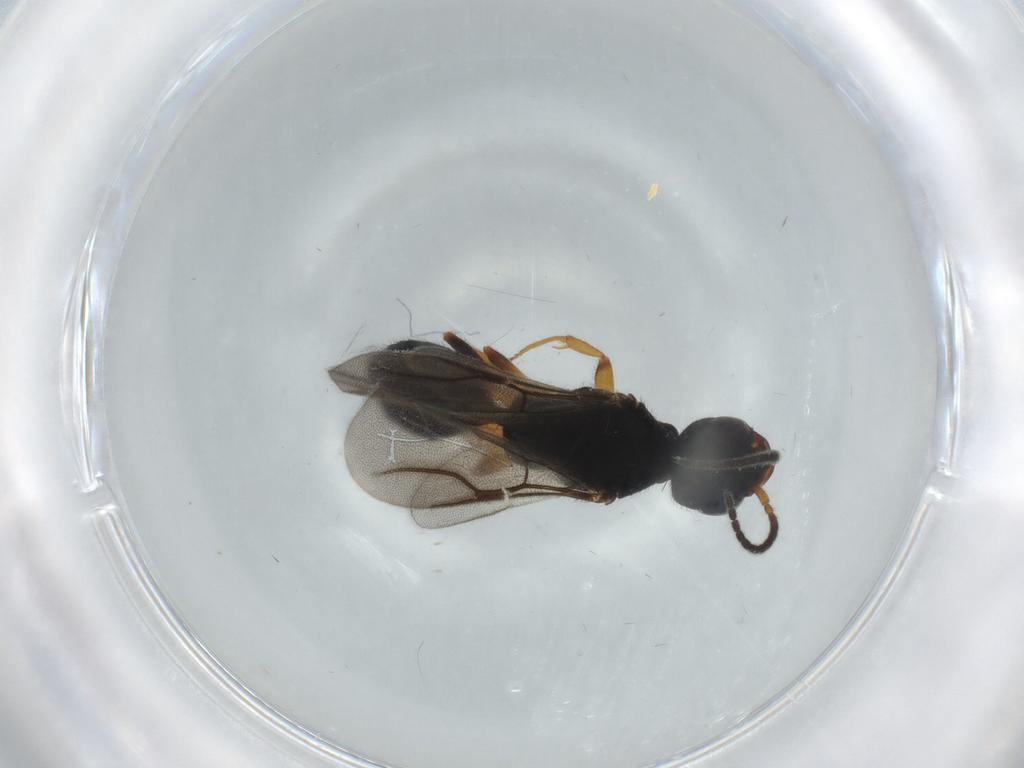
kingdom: Animalia
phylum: Arthropoda
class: Insecta
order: Hymenoptera
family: Bethylidae
